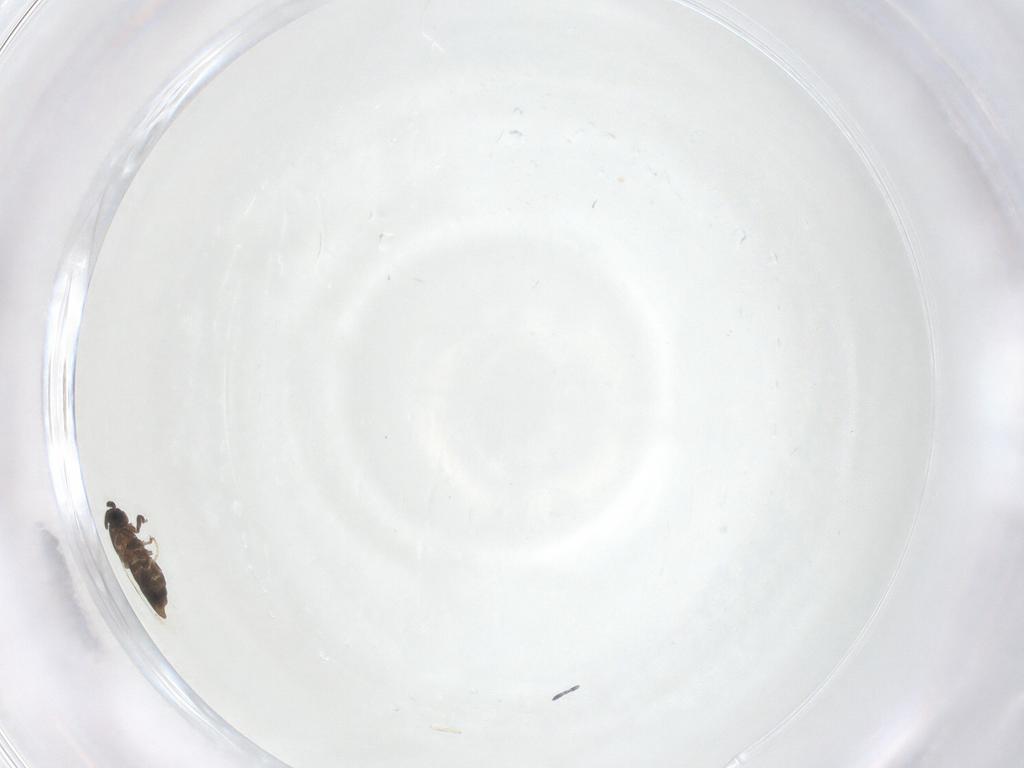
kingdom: Animalia
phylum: Arthropoda
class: Insecta
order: Diptera
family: Scatopsidae
